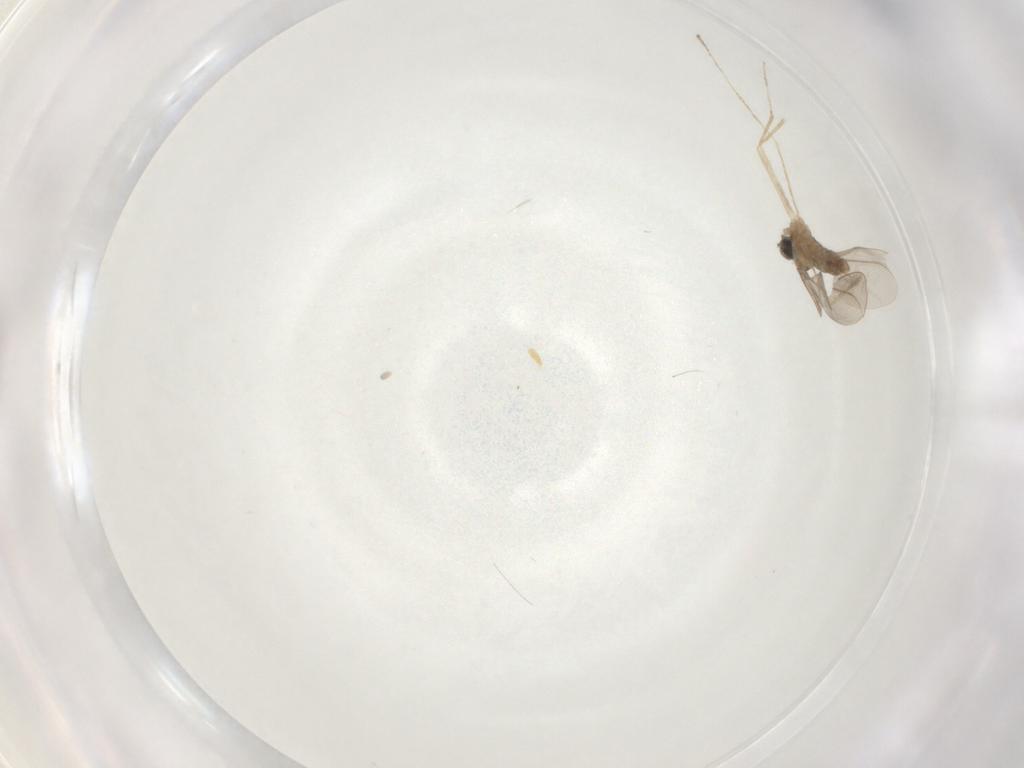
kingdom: Animalia
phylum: Arthropoda
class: Insecta
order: Diptera
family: Cecidomyiidae
